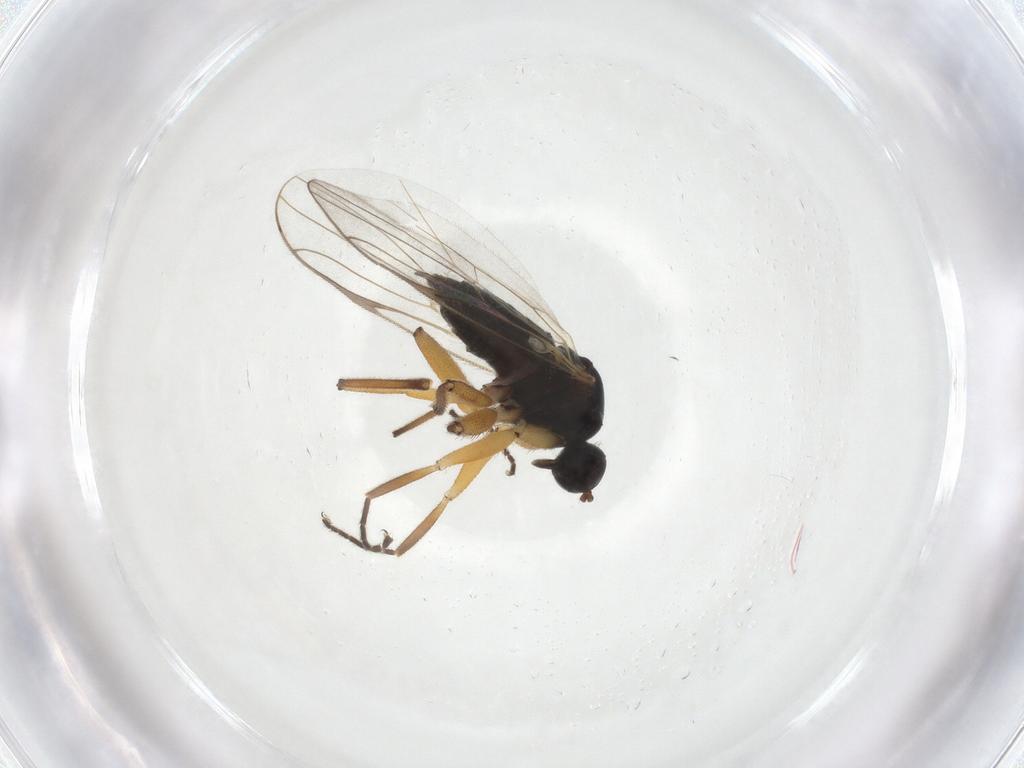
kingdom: Animalia
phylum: Arthropoda
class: Insecta
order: Diptera
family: Hybotidae
